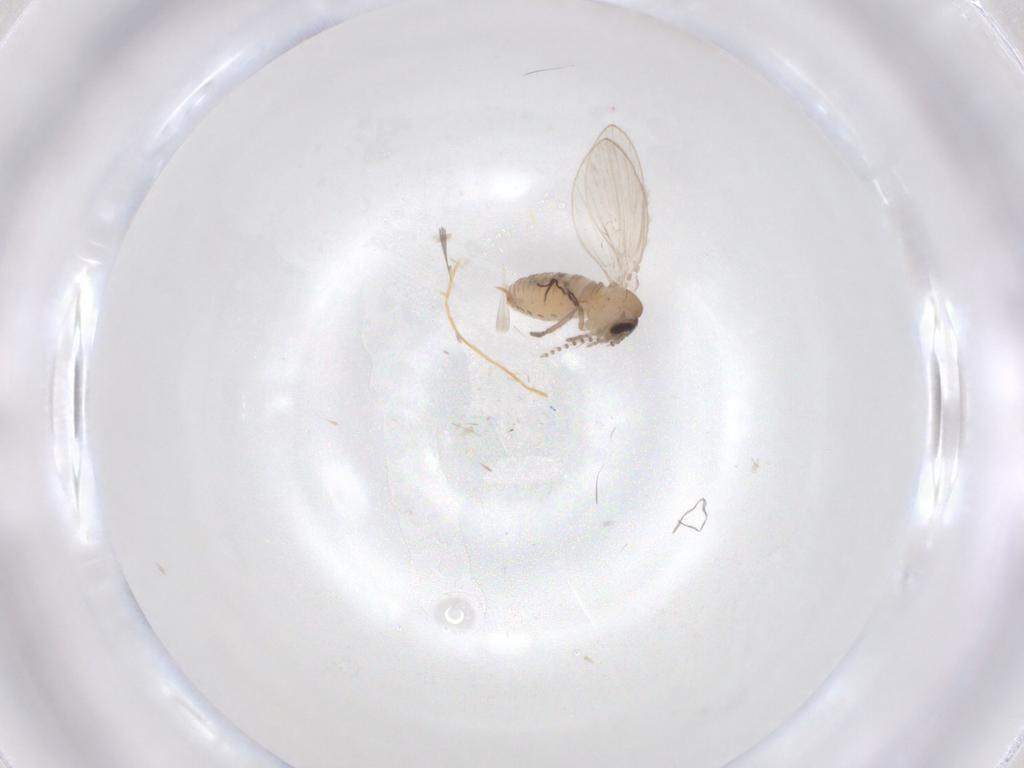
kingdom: Animalia
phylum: Arthropoda
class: Insecta
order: Diptera
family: Psychodidae
